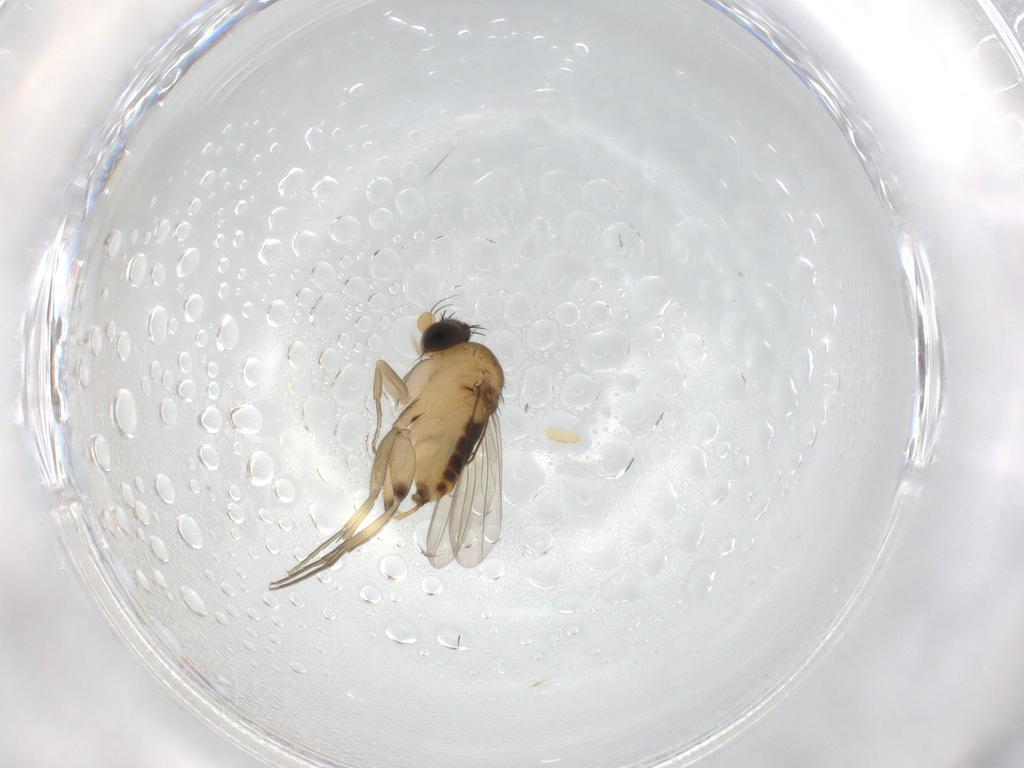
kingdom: Animalia
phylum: Arthropoda
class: Insecta
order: Diptera
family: Phoridae
